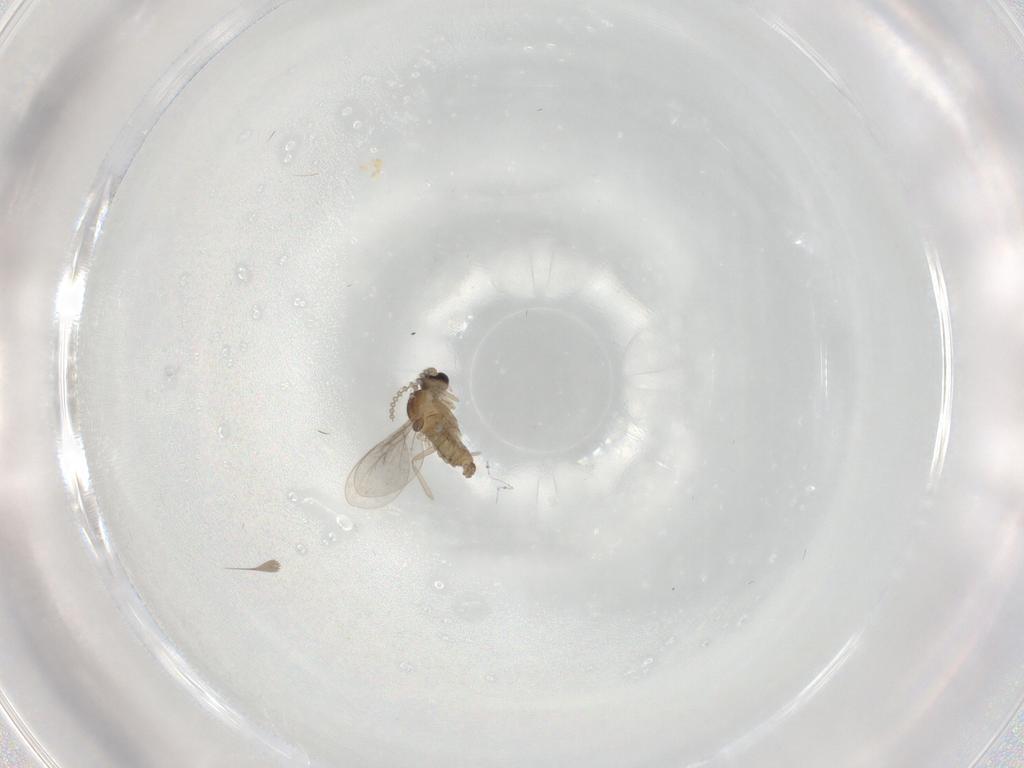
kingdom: Animalia
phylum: Arthropoda
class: Insecta
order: Diptera
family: Cecidomyiidae
